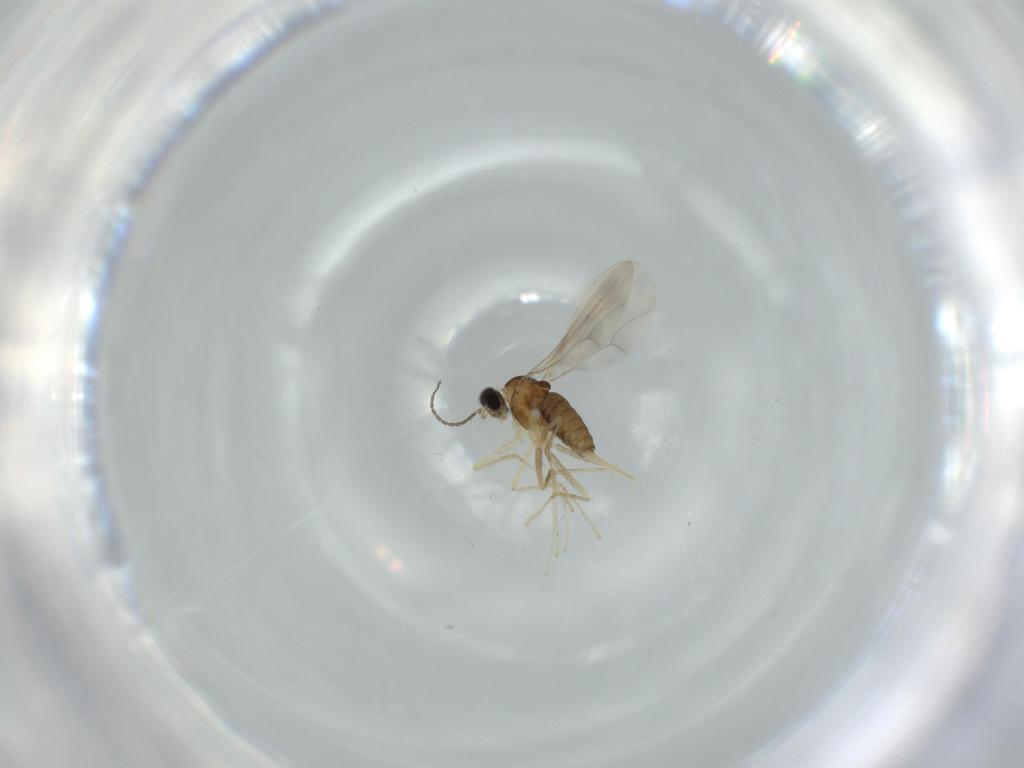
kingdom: Animalia
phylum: Arthropoda
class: Insecta
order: Diptera
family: Cecidomyiidae
